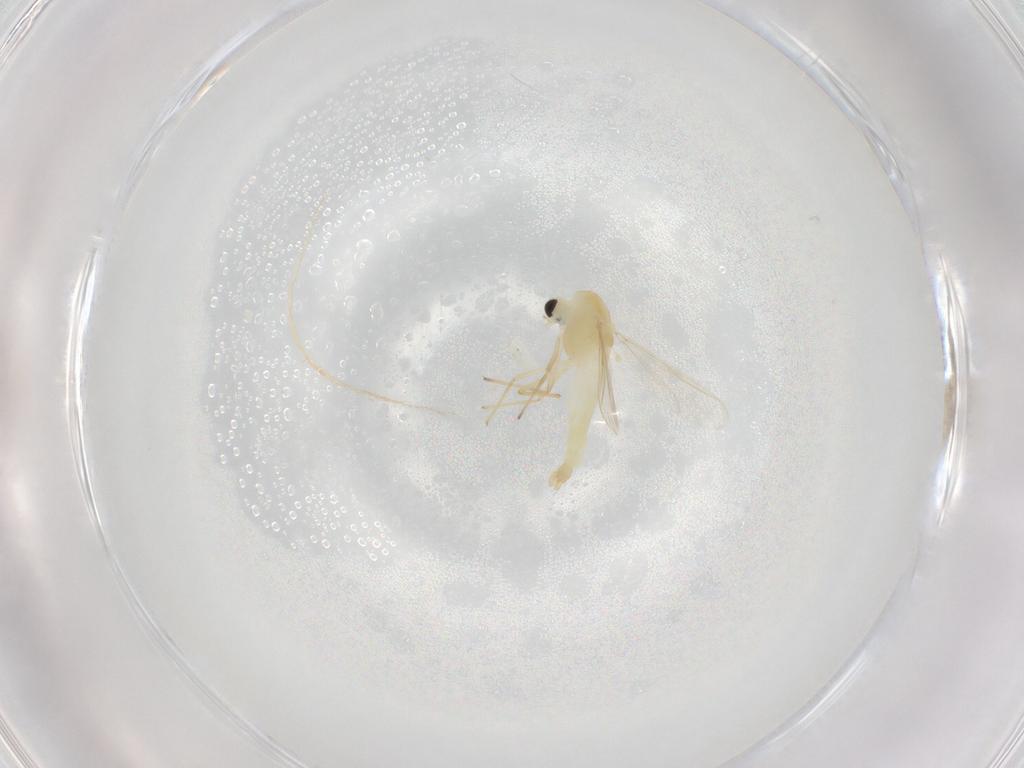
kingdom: Animalia
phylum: Arthropoda
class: Insecta
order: Diptera
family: Chironomidae
